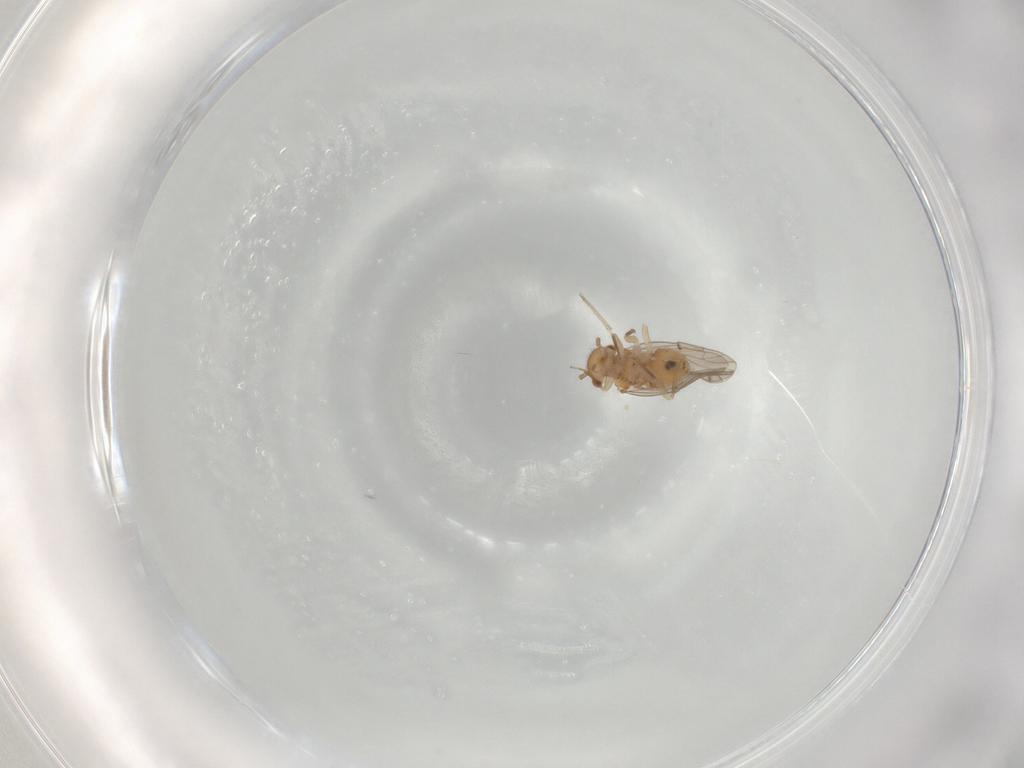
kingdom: Animalia
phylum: Arthropoda
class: Insecta
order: Psocodea
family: Ectopsocidae
